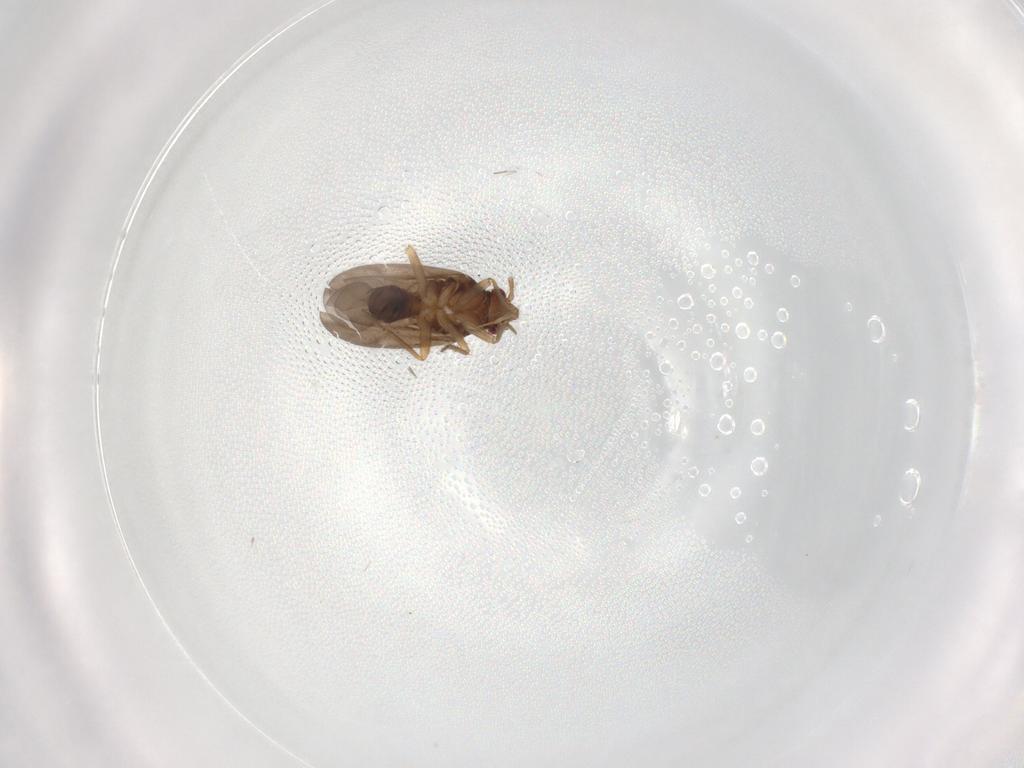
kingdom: Animalia
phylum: Arthropoda
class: Insecta
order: Hemiptera
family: Ceratocombidae
